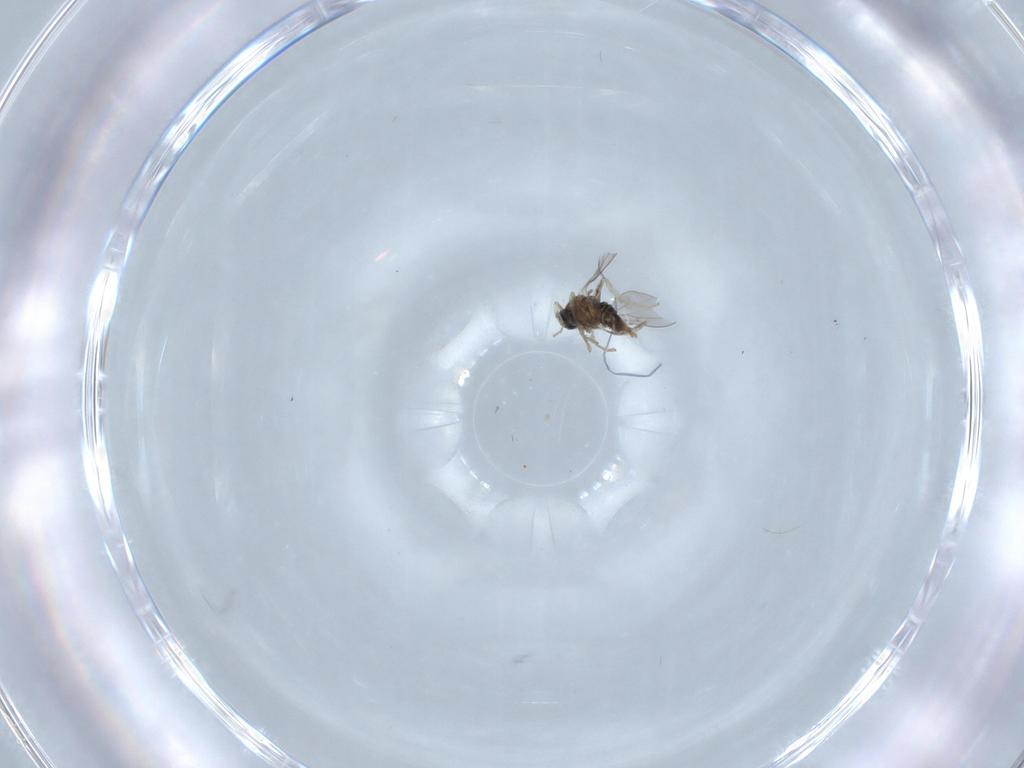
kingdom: Animalia
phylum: Arthropoda
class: Insecta
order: Diptera
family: Cecidomyiidae
